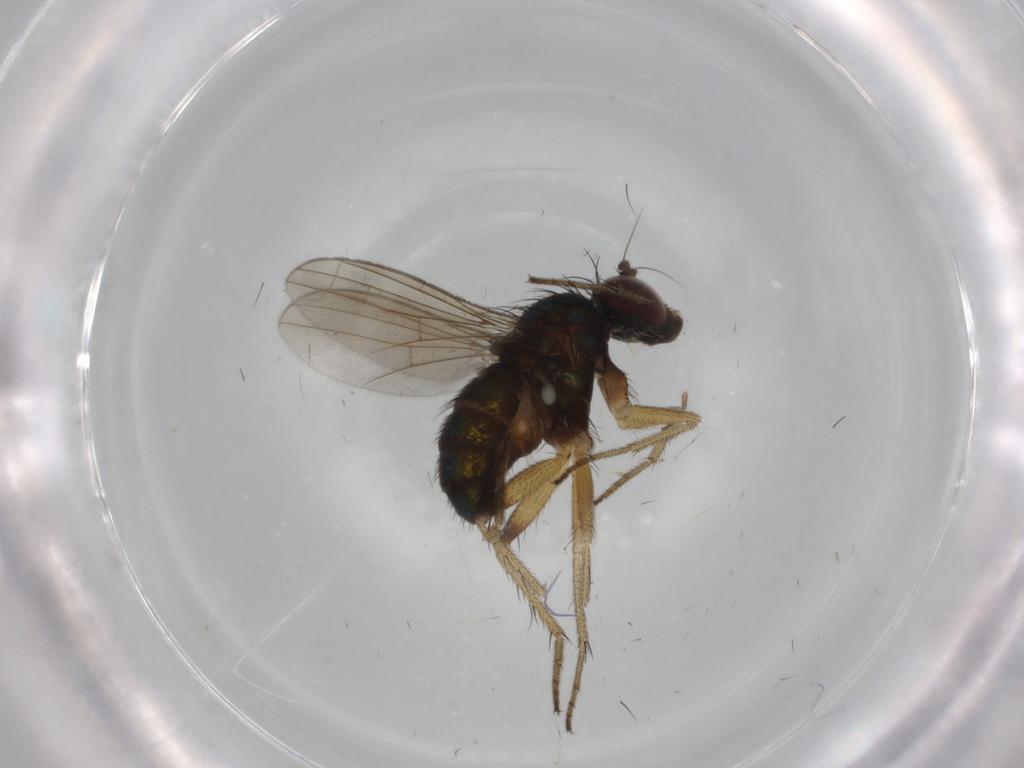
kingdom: Animalia
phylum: Arthropoda
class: Insecta
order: Diptera
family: Dolichopodidae
